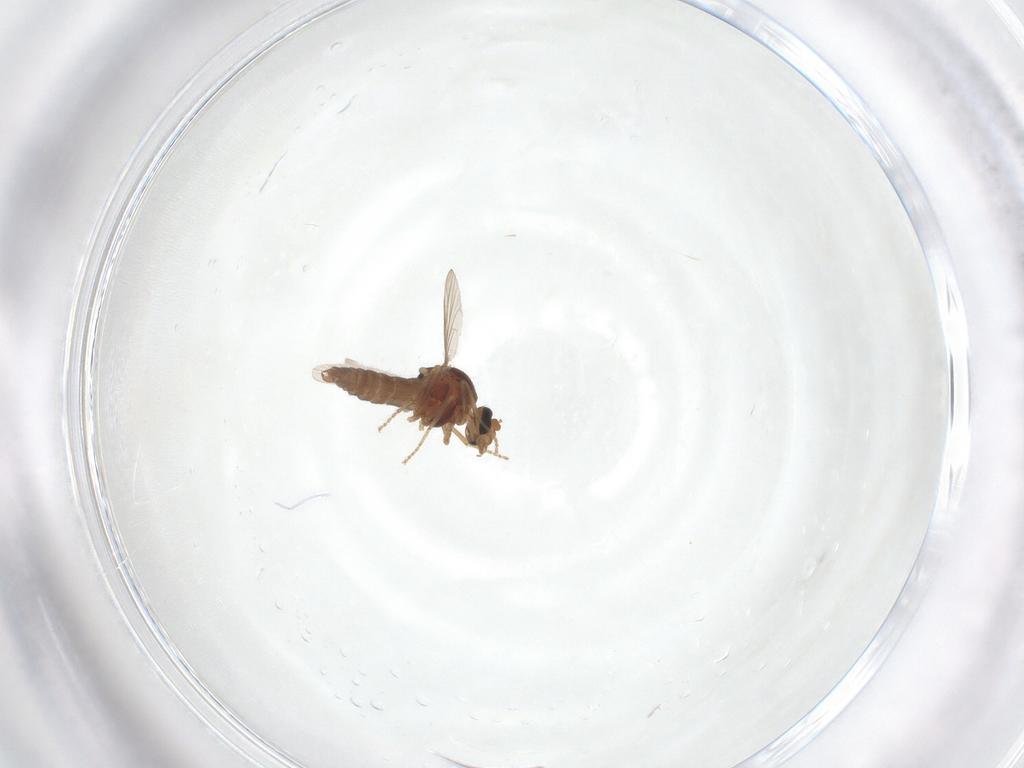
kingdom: Animalia
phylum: Arthropoda
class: Insecta
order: Diptera
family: Ceratopogonidae
